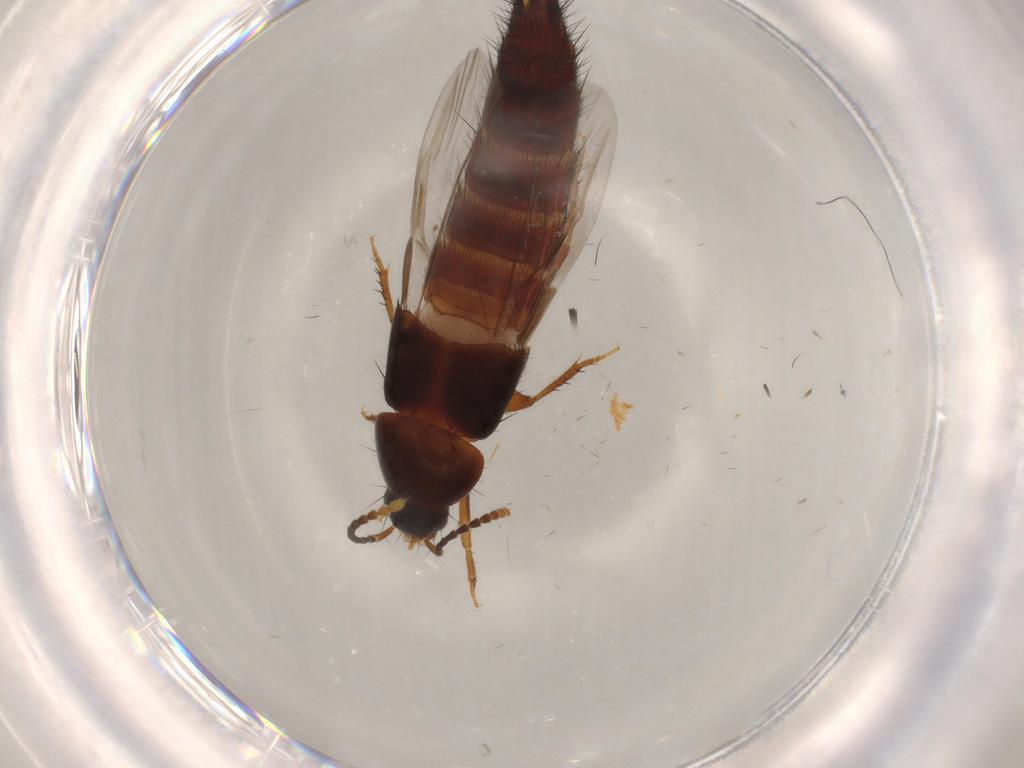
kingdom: Animalia
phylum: Arthropoda
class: Insecta
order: Coleoptera
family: Staphylinidae
